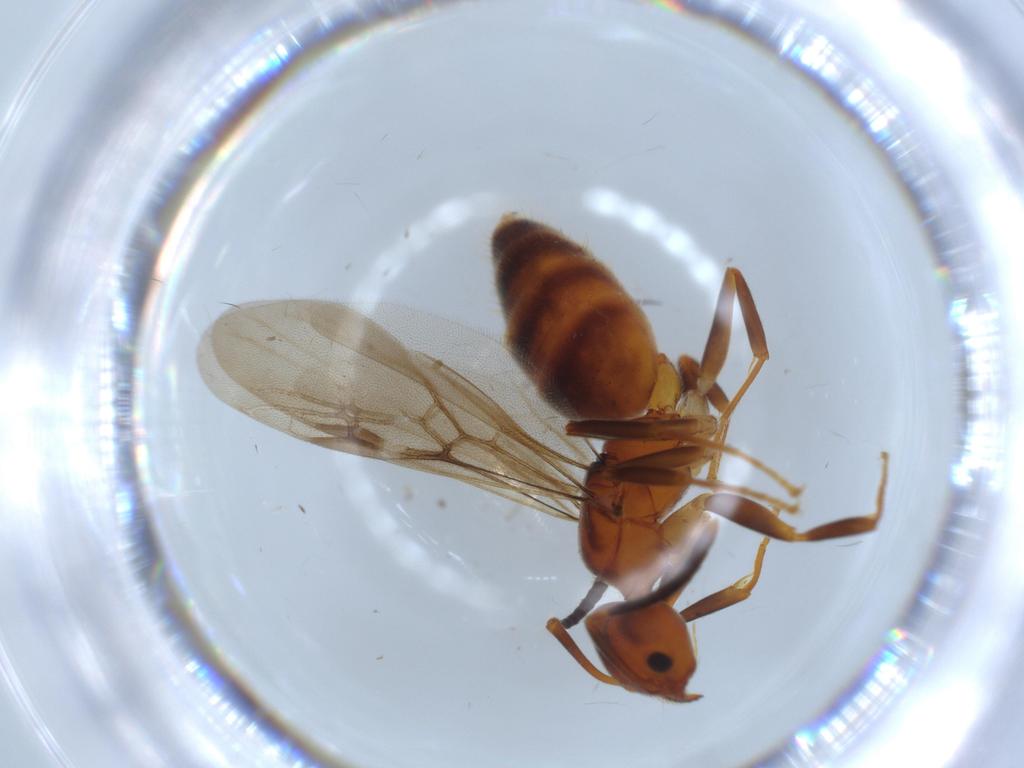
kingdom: Animalia
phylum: Arthropoda
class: Insecta
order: Hymenoptera
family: Formicidae
